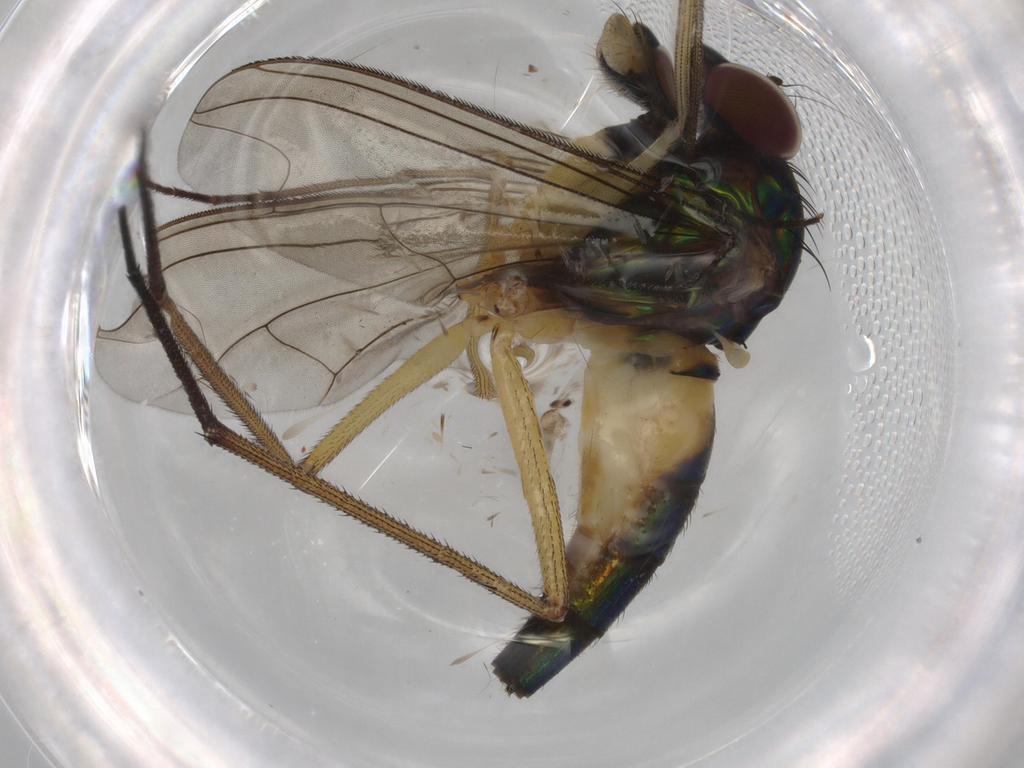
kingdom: Animalia
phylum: Arthropoda
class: Insecta
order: Diptera
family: Dolichopodidae
